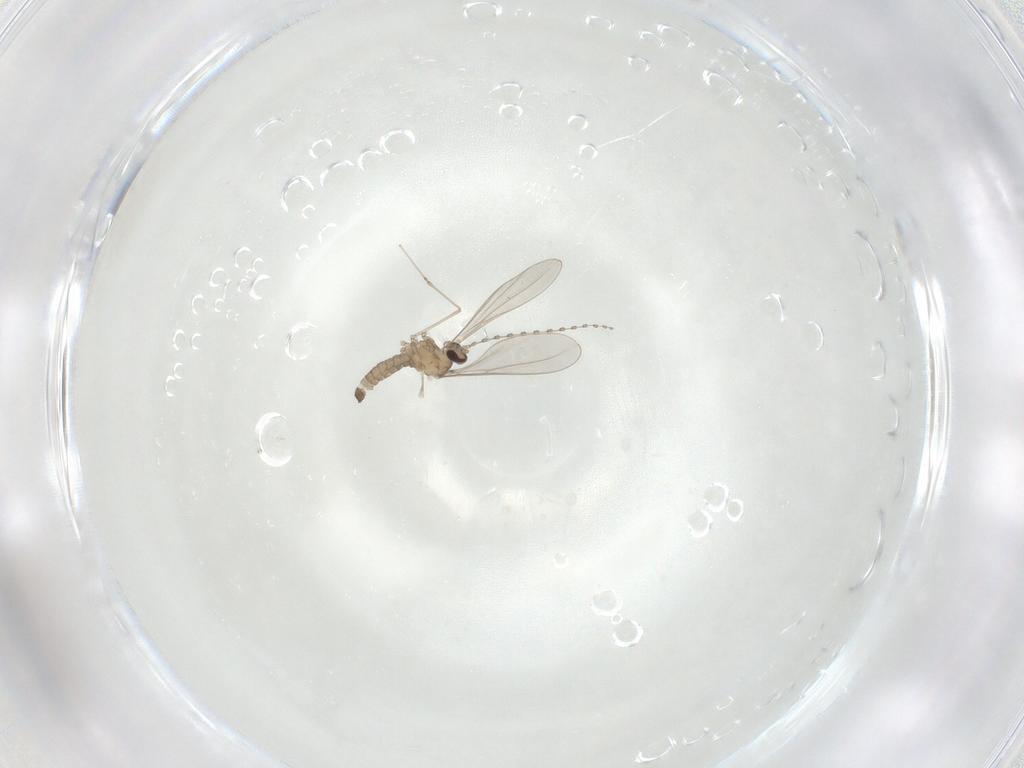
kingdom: Animalia
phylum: Arthropoda
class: Insecta
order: Diptera
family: Cecidomyiidae
